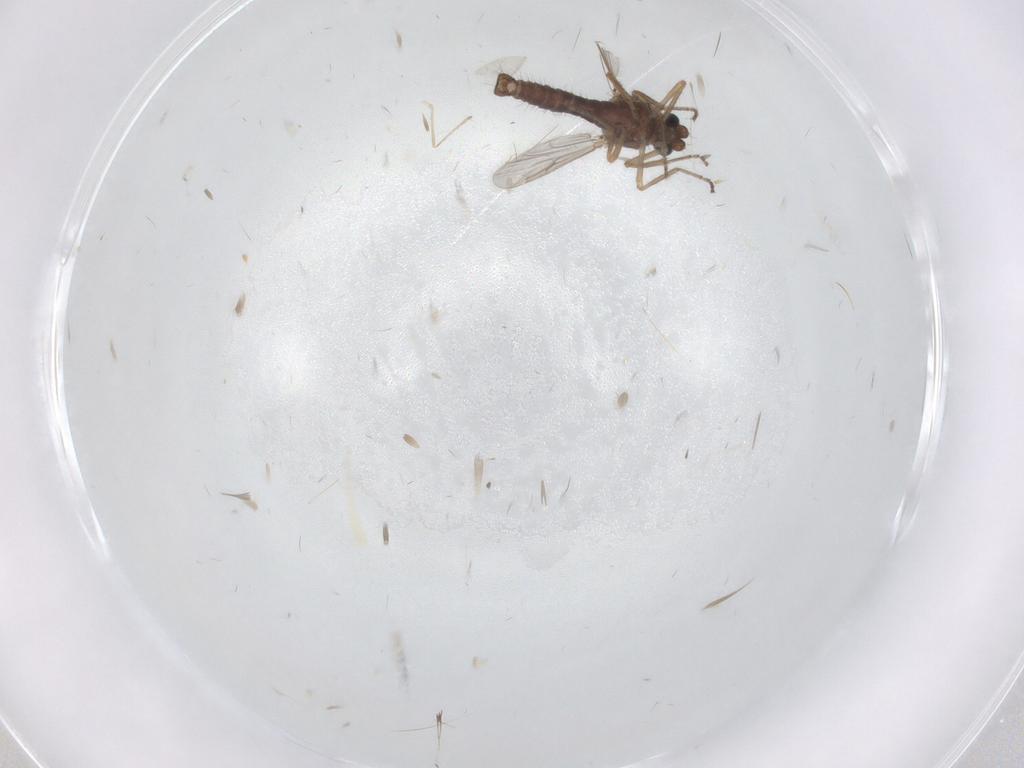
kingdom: Animalia
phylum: Arthropoda
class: Insecta
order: Diptera
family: Ceratopogonidae
